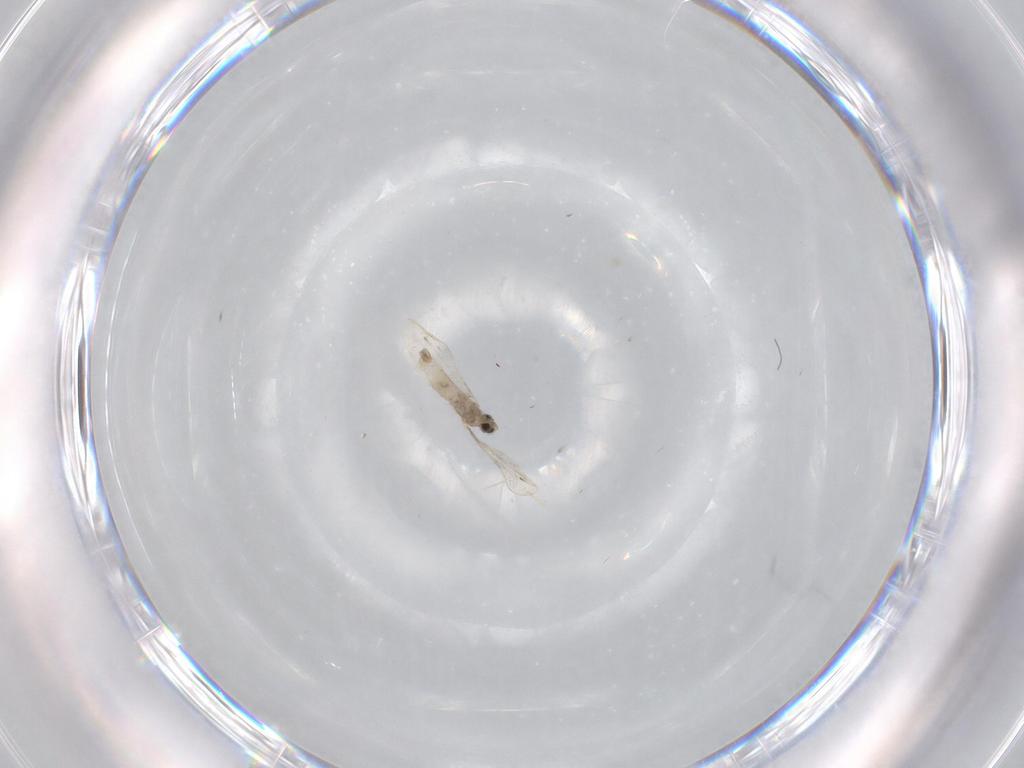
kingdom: Animalia
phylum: Arthropoda
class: Insecta
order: Diptera
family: Cecidomyiidae
